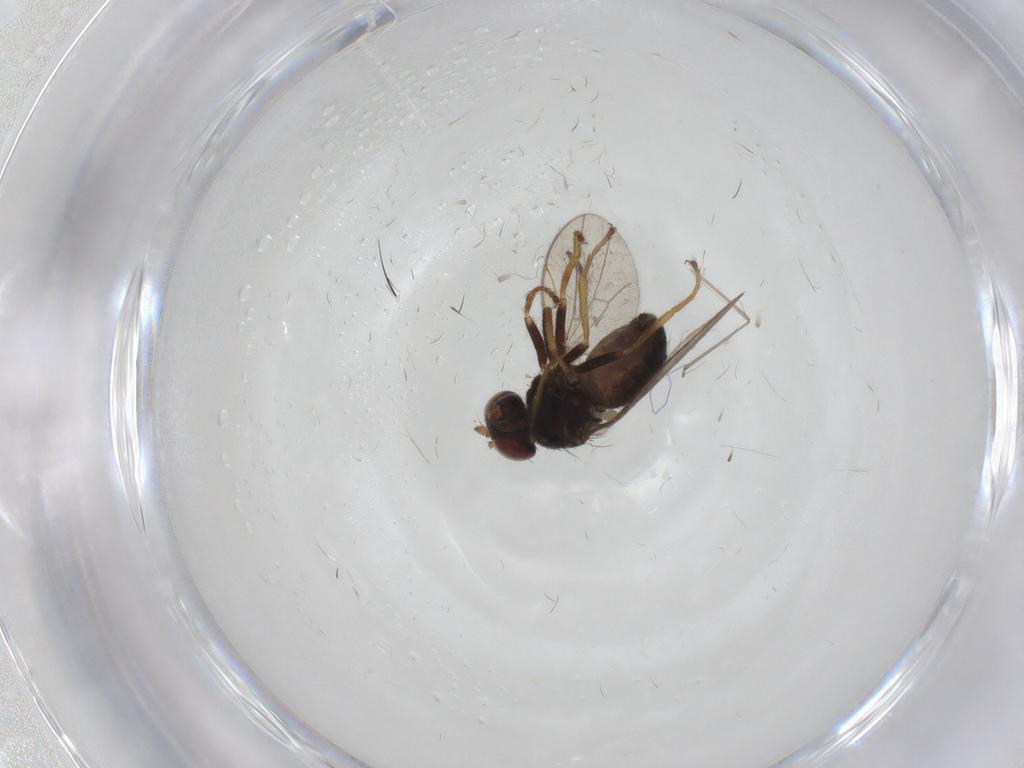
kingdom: Animalia
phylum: Arthropoda
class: Insecta
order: Diptera
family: Ephydridae
